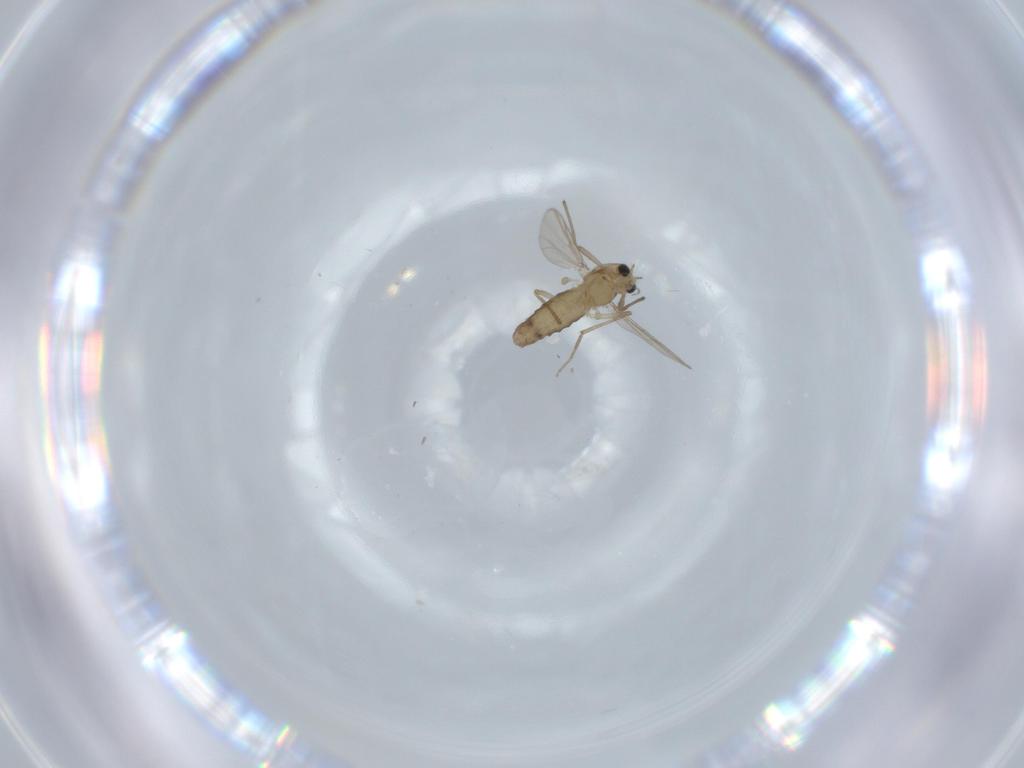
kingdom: Animalia
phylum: Arthropoda
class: Insecta
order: Diptera
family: Chironomidae
